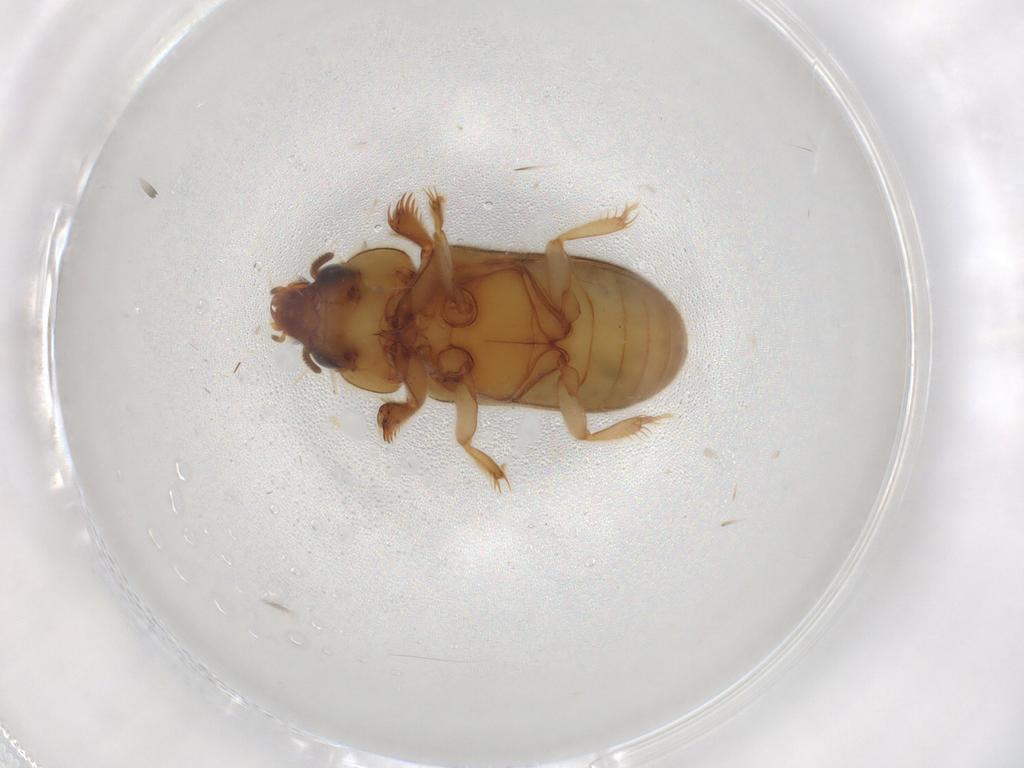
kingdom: Animalia
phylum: Arthropoda
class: Insecta
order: Coleoptera
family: Heteroceridae
